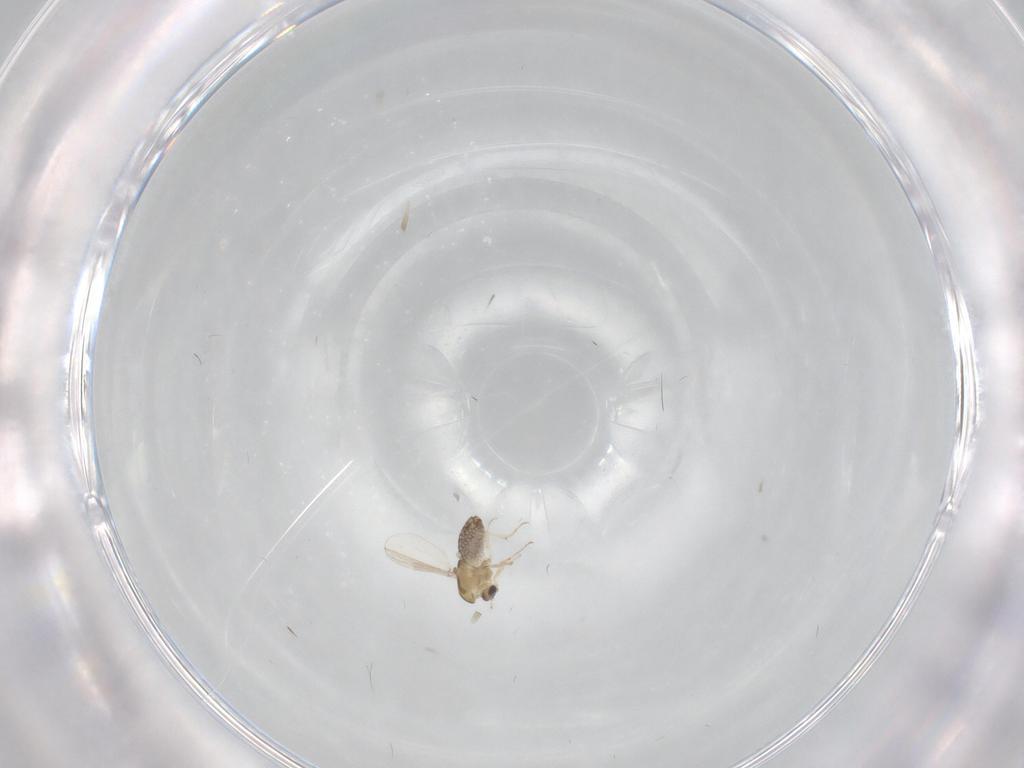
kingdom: Animalia
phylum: Arthropoda
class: Insecta
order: Diptera
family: Chironomidae
